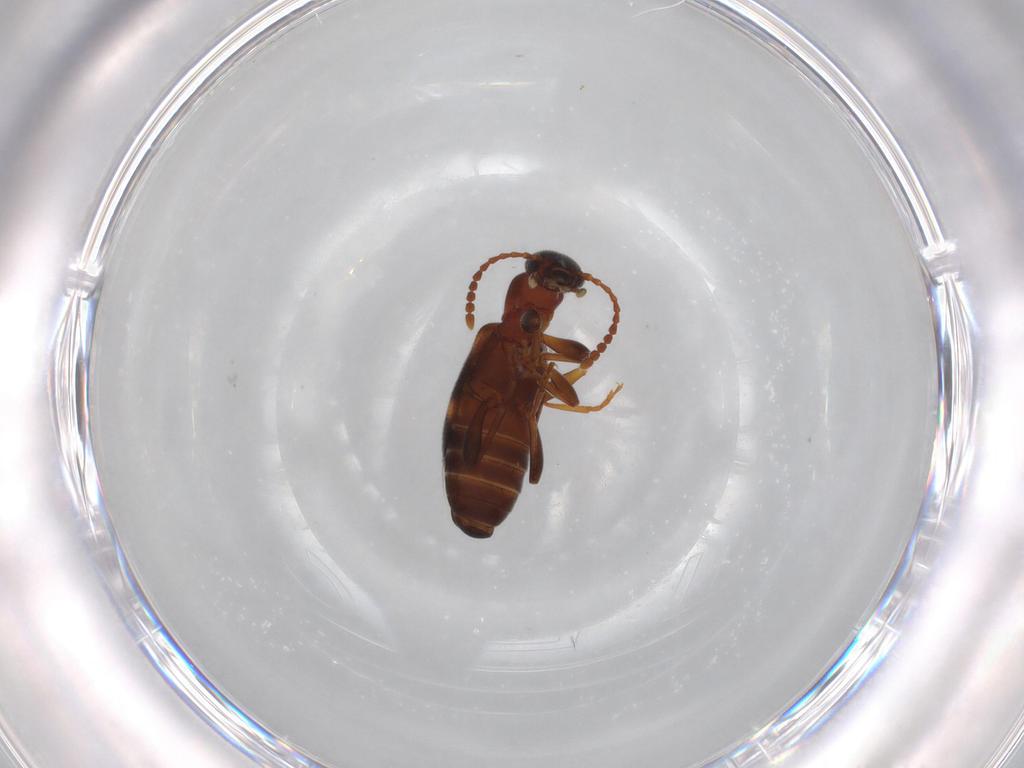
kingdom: Animalia
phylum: Arthropoda
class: Insecta
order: Coleoptera
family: Anthicidae
